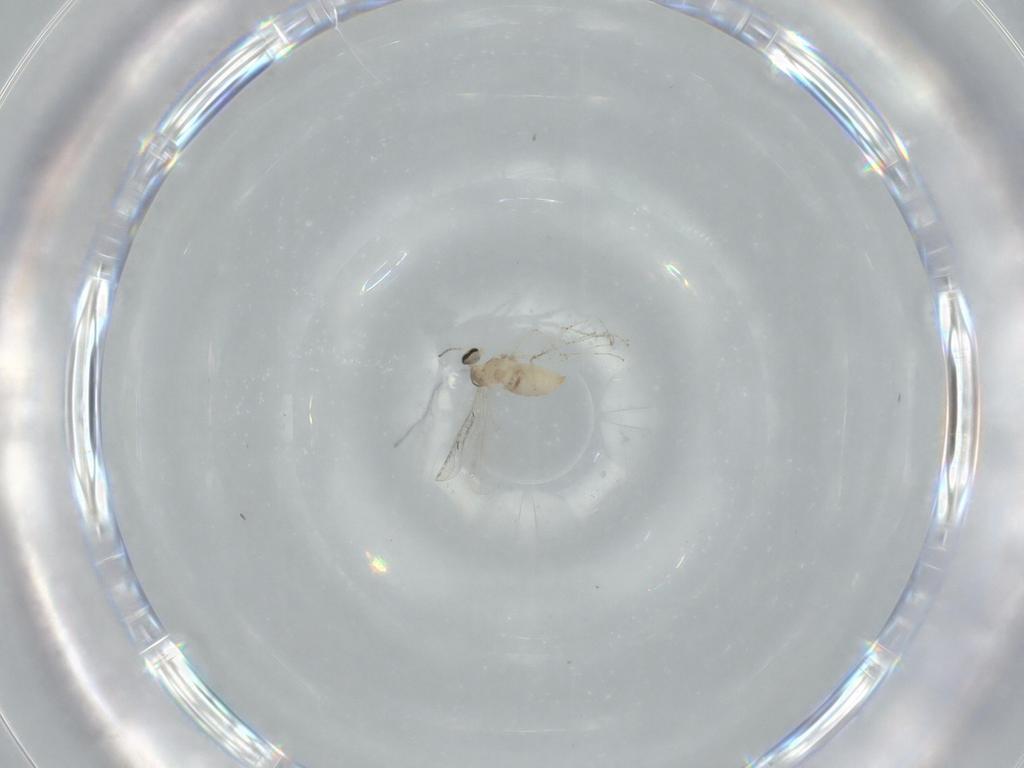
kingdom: Animalia
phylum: Arthropoda
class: Insecta
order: Diptera
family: Cecidomyiidae
